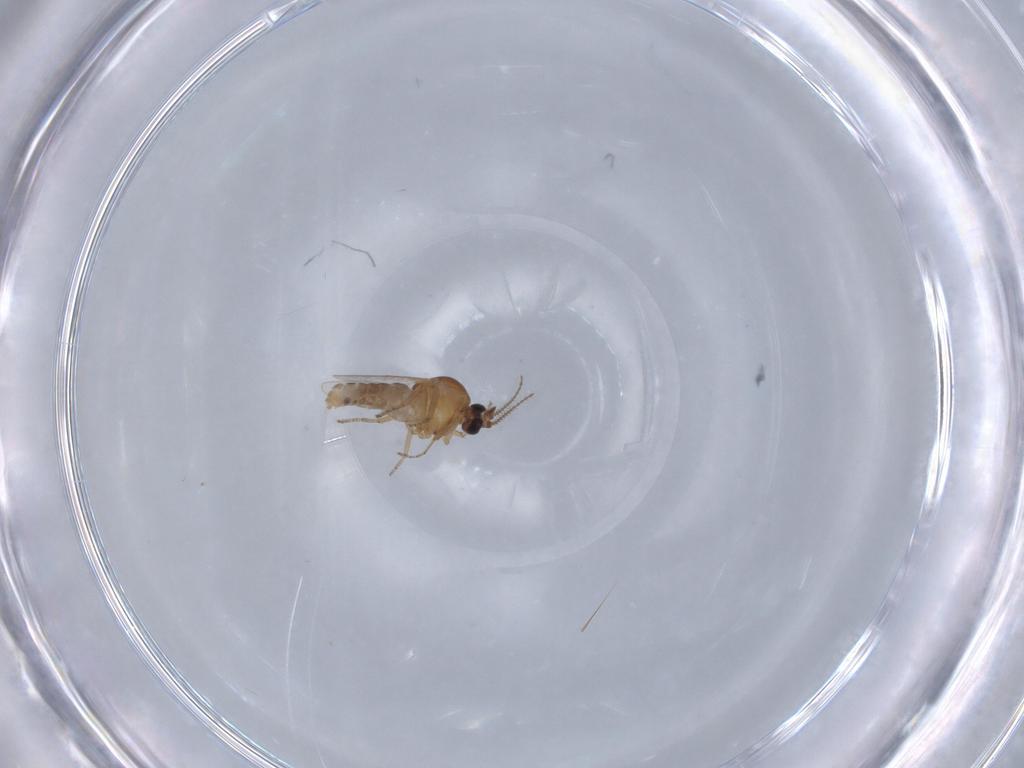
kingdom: Animalia
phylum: Arthropoda
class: Insecta
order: Diptera
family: Ceratopogonidae
